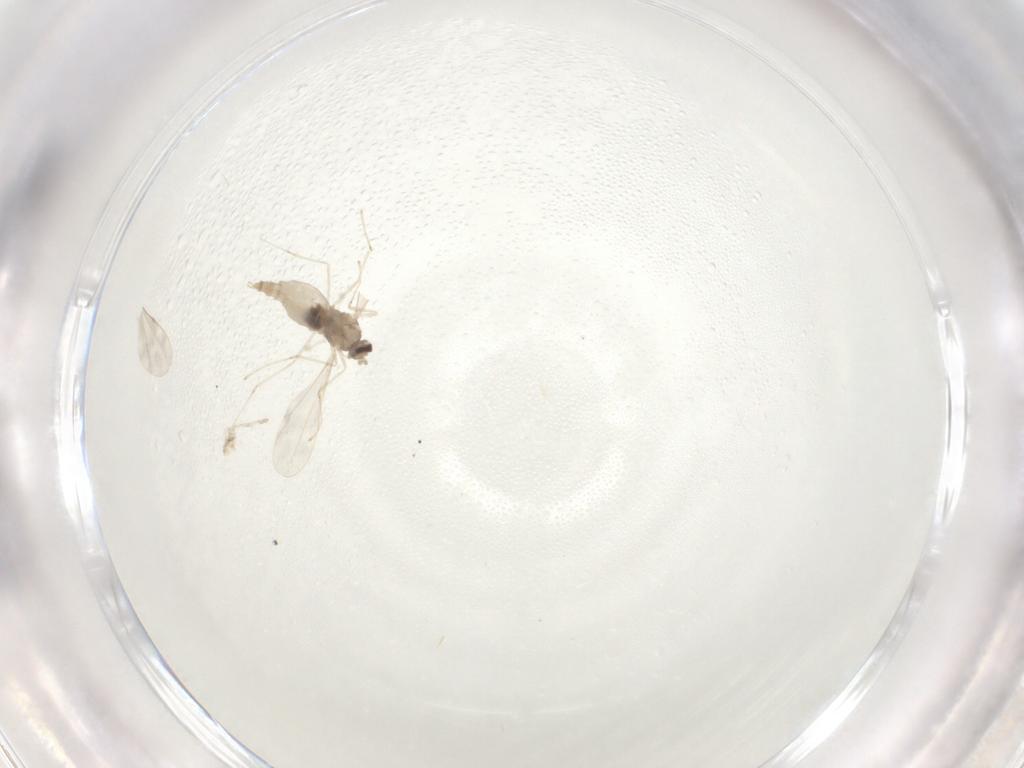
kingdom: Animalia
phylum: Arthropoda
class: Insecta
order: Diptera
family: Cecidomyiidae
